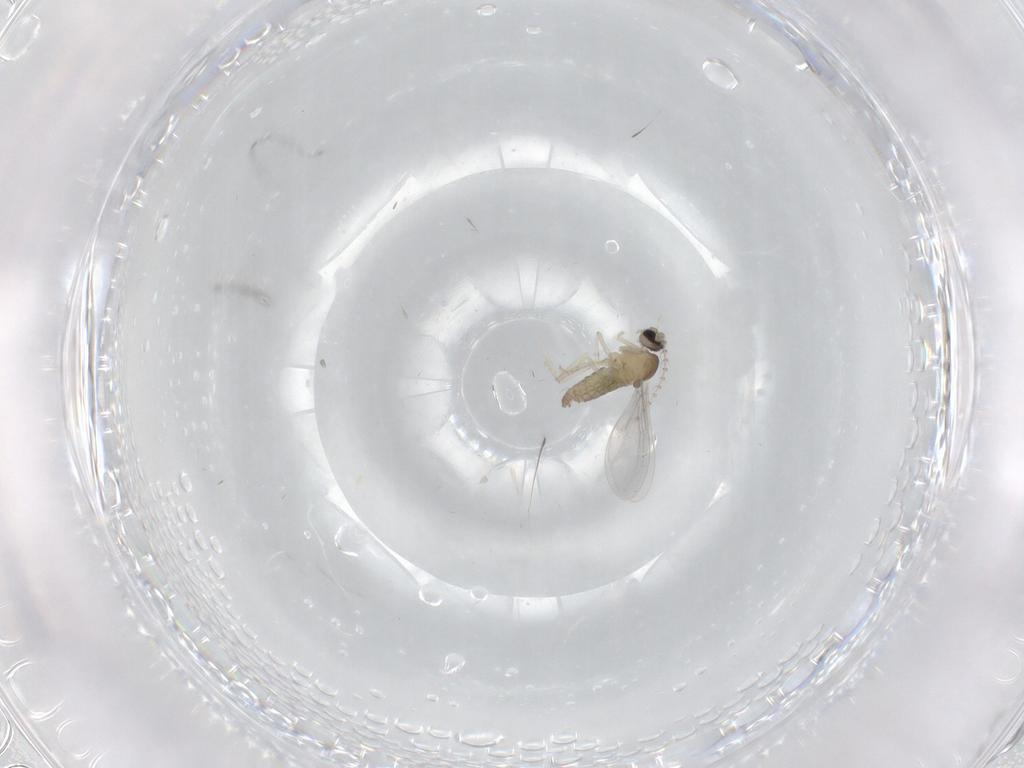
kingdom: Animalia
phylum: Arthropoda
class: Insecta
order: Diptera
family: Cecidomyiidae
